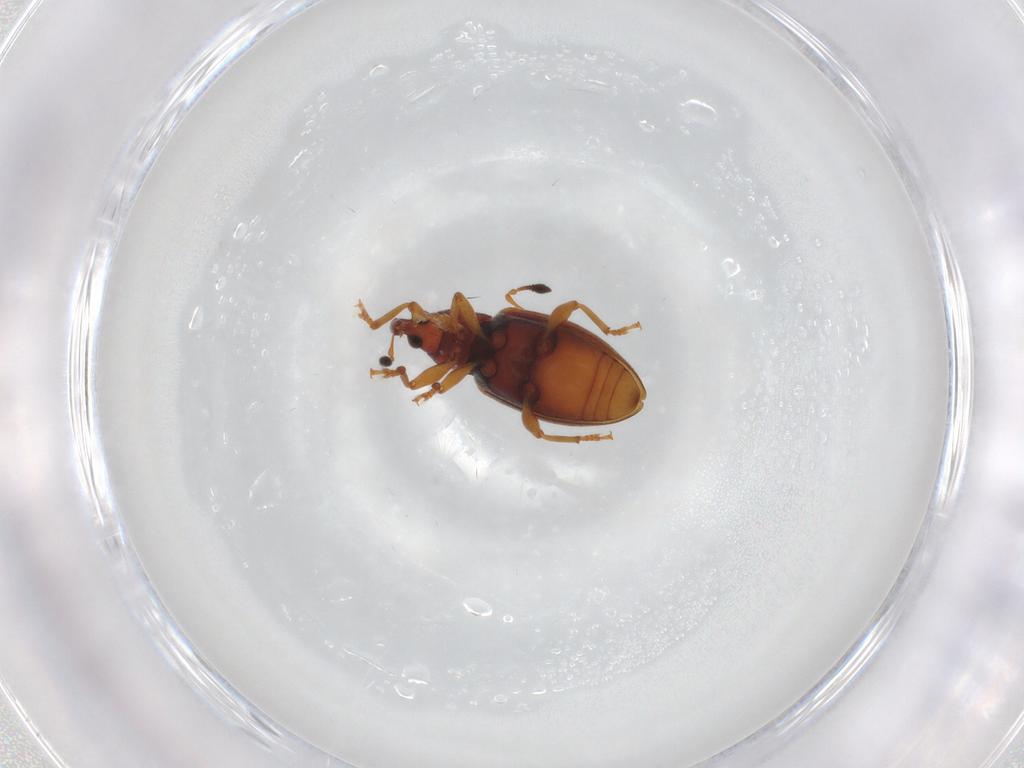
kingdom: Animalia
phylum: Arthropoda
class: Insecta
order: Coleoptera
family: Curculionidae
